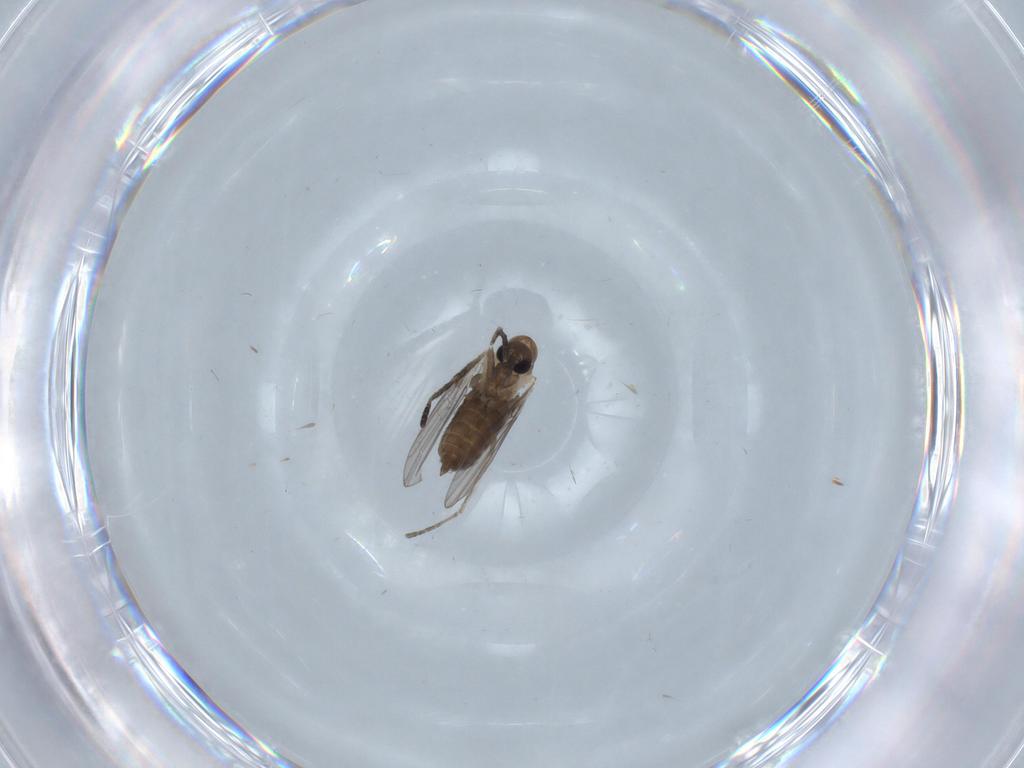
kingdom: Animalia
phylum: Arthropoda
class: Insecta
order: Diptera
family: Psychodidae
